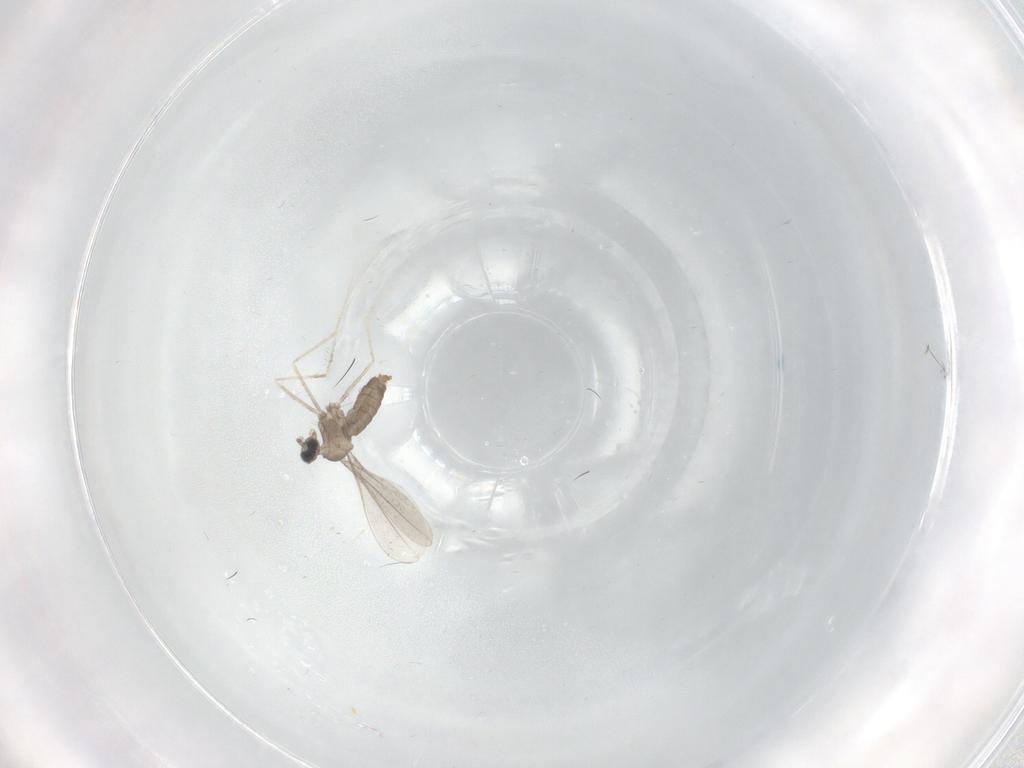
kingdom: Animalia
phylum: Arthropoda
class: Insecta
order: Diptera
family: Cecidomyiidae
